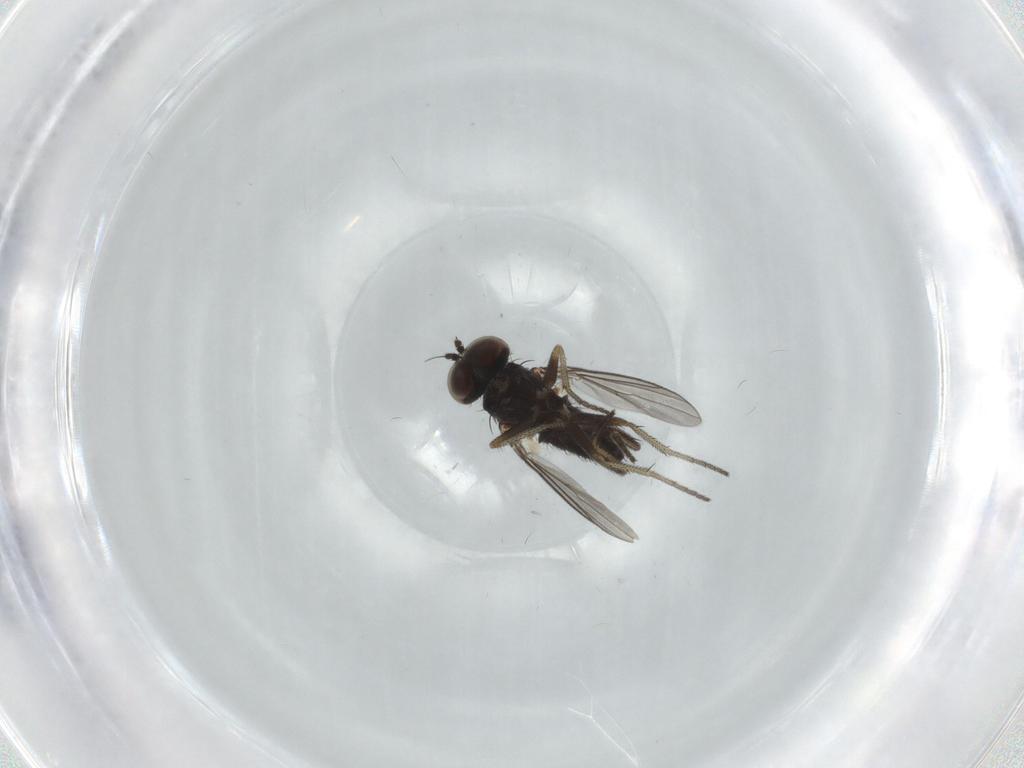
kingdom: Animalia
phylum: Arthropoda
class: Insecta
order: Diptera
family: Dolichopodidae
